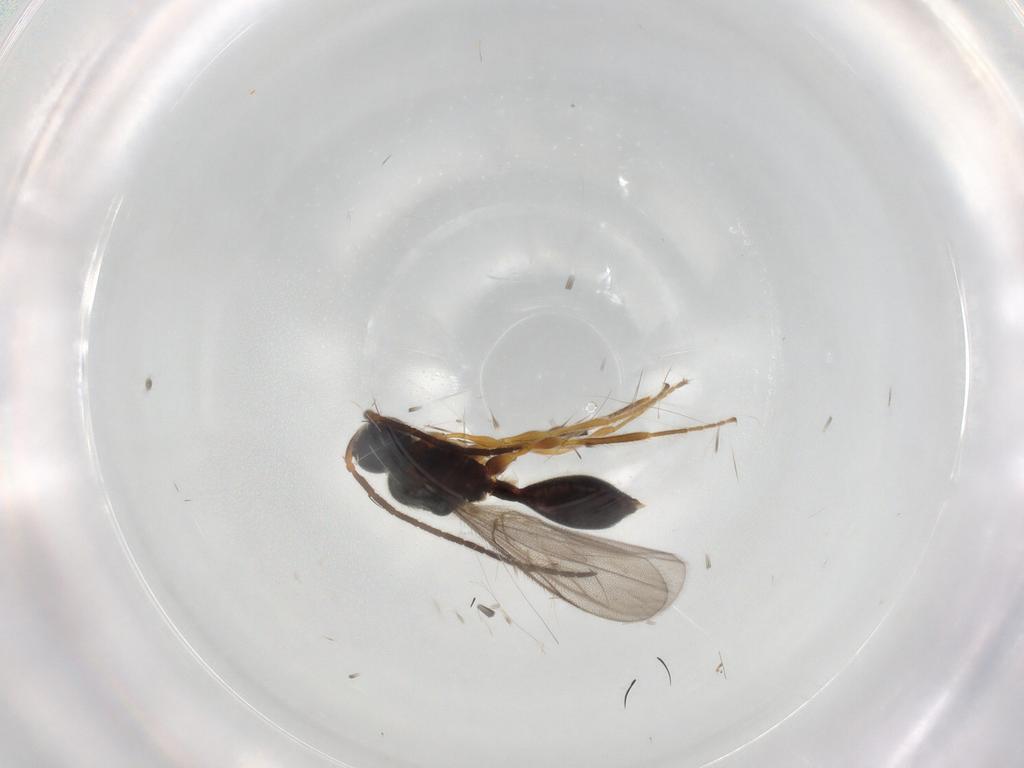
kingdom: Animalia
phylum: Arthropoda
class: Insecta
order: Hymenoptera
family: Diapriidae
